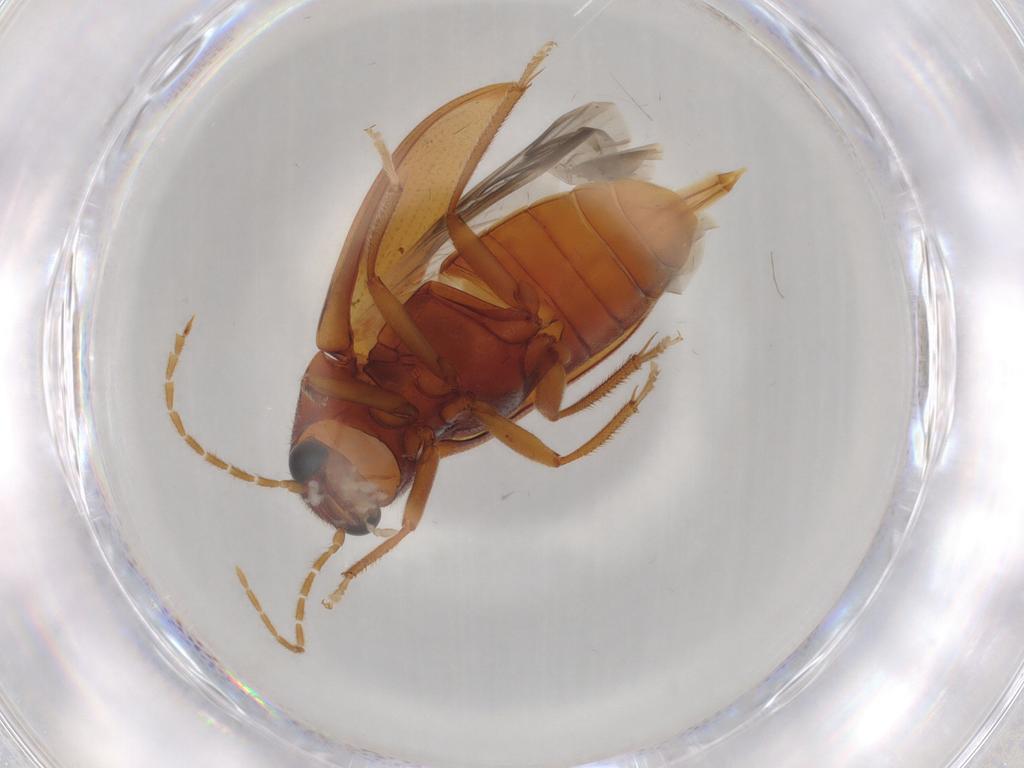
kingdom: Animalia
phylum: Arthropoda
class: Insecta
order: Coleoptera
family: Ptilodactylidae
